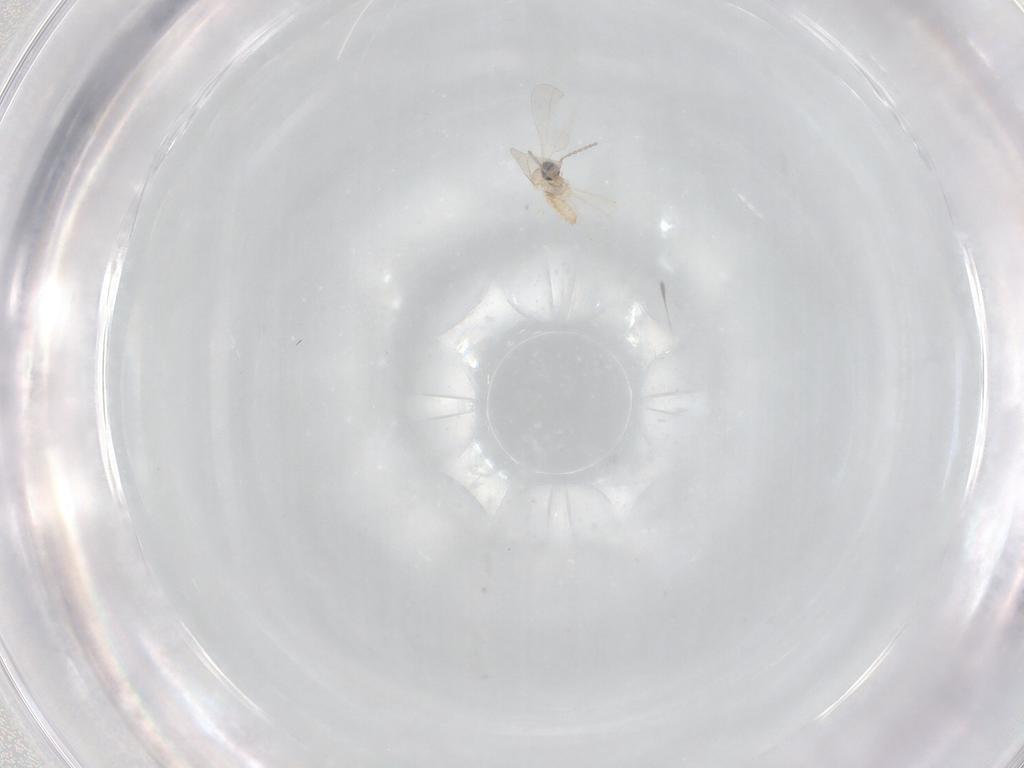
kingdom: Animalia
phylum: Arthropoda
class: Insecta
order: Diptera
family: Cecidomyiidae
